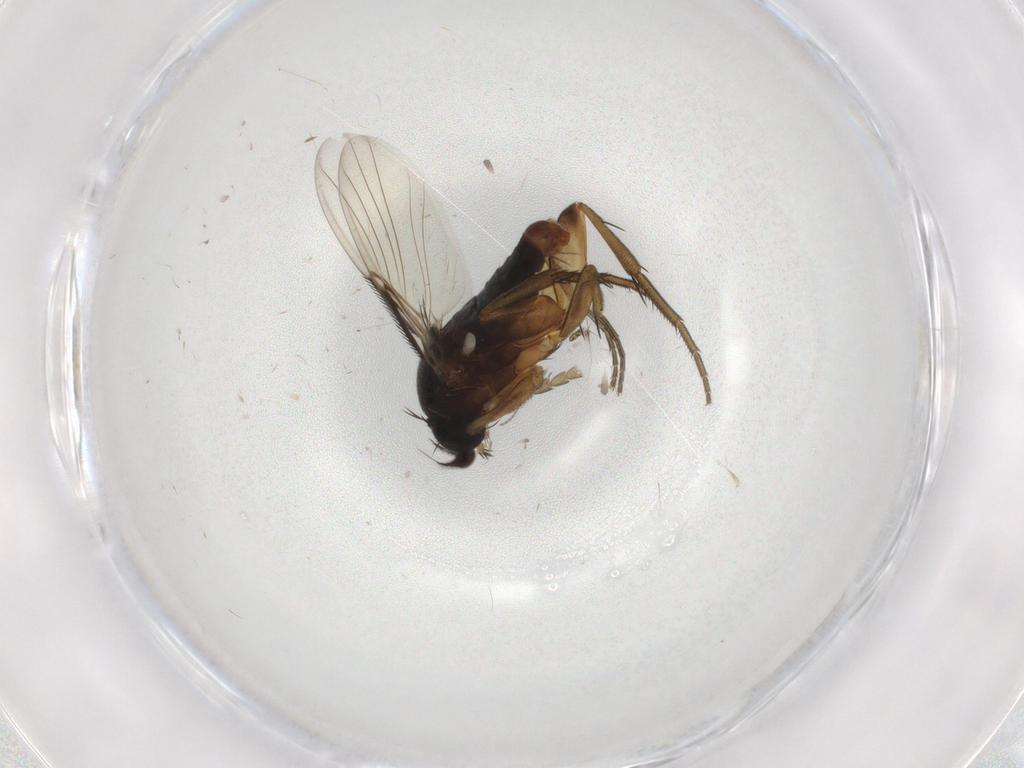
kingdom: Animalia
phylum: Arthropoda
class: Insecta
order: Diptera
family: Phoridae
